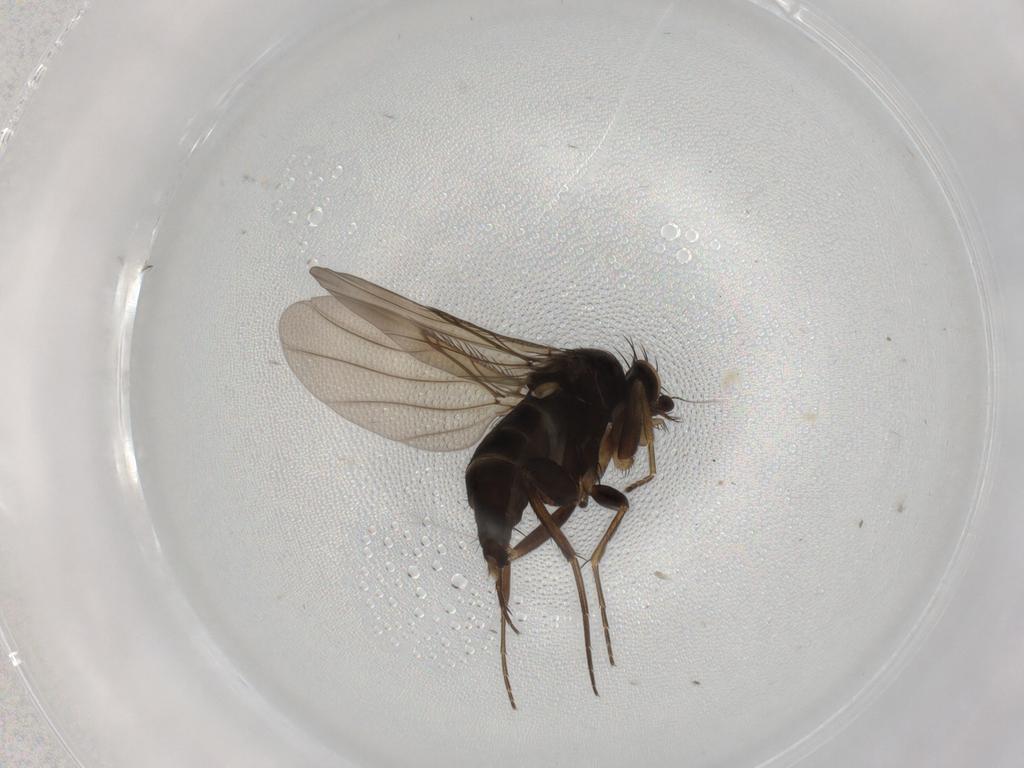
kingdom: Animalia
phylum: Arthropoda
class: Insecta
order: Diptera
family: Phoridae
